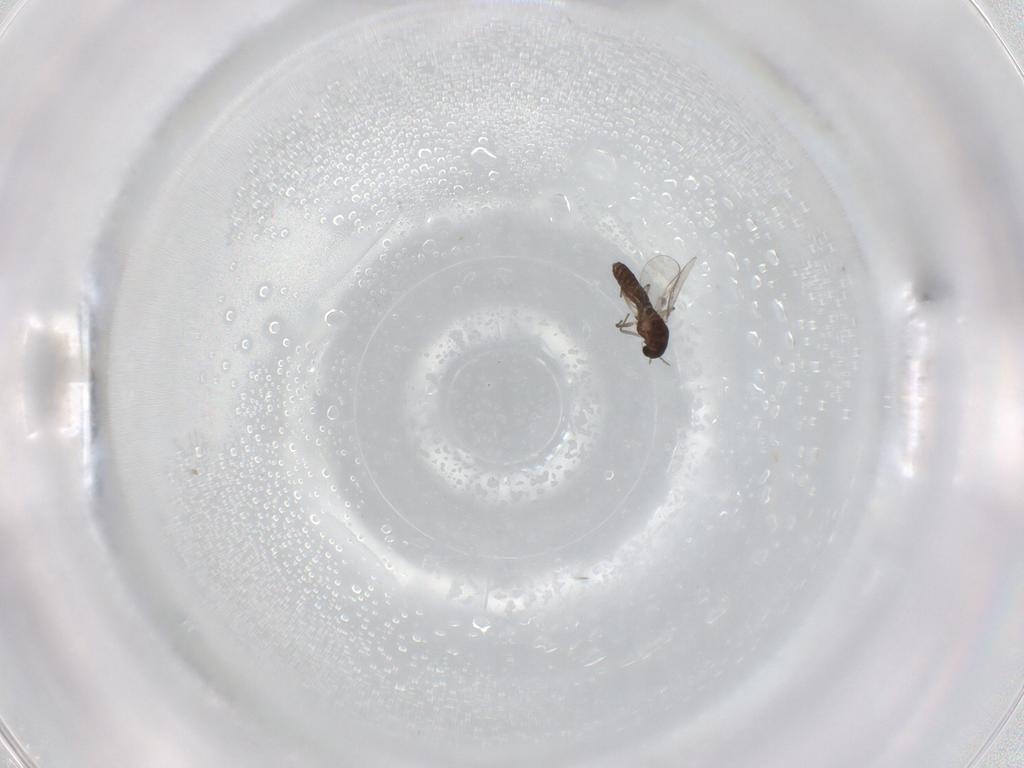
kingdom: Animalia
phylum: Arthropoda
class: Insecta
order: Diptera
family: Chironomidae
